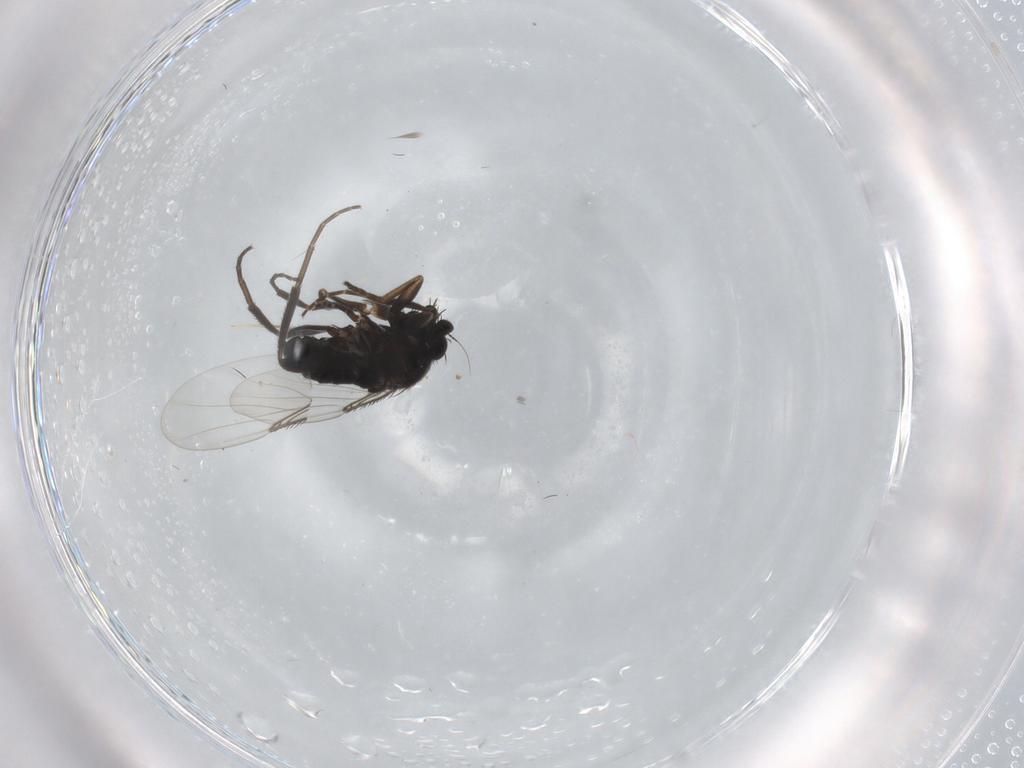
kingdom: Animalia
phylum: Arthropoda
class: Insecta
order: Diptera
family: Phoridae
